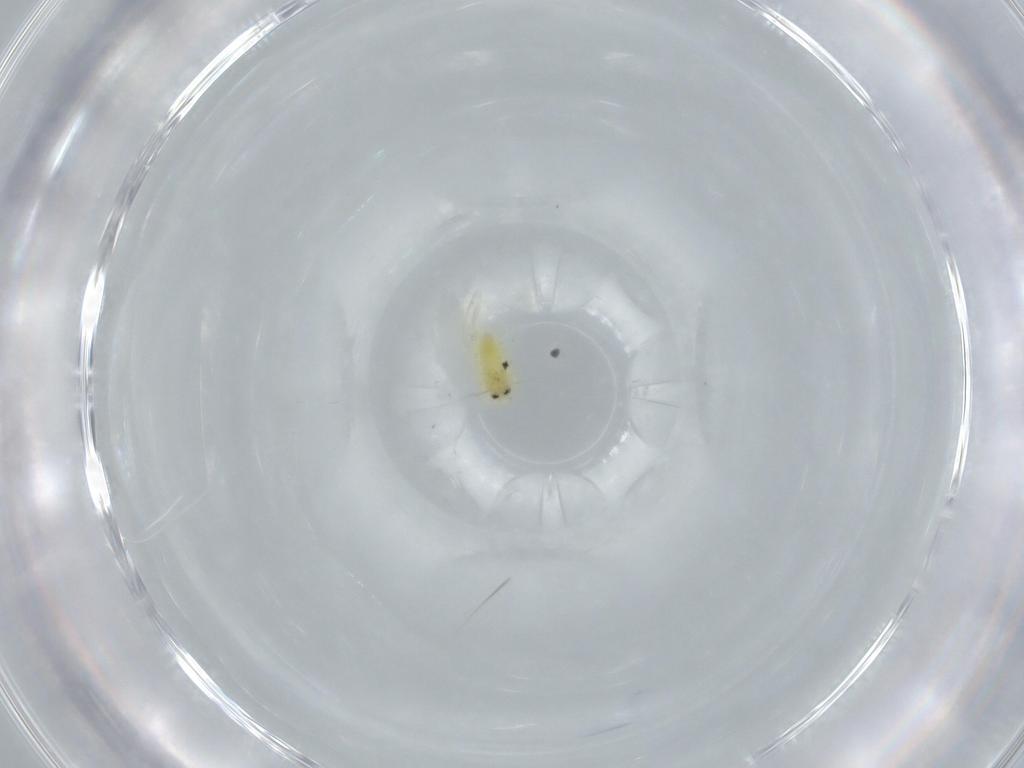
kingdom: Animalia
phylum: Arthropoda
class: Insecta
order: Hemiptera
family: Aleyrodidae
